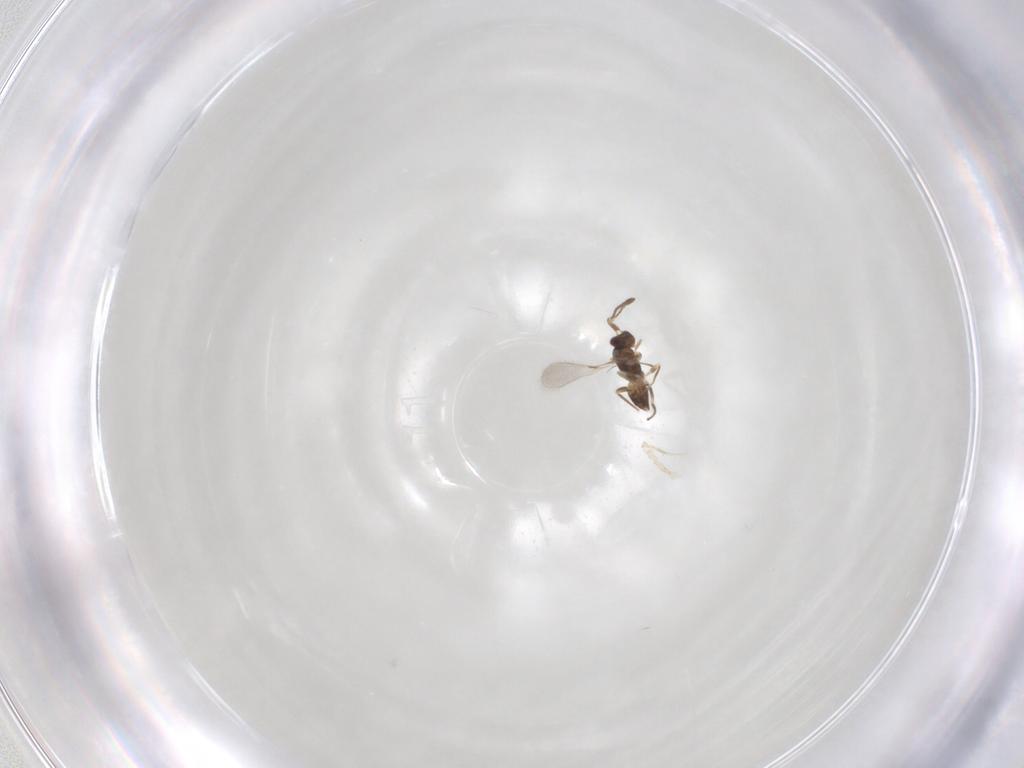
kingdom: Animalia
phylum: Arthropoda
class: Insecta
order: Hymenoptera
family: Mymaridae
